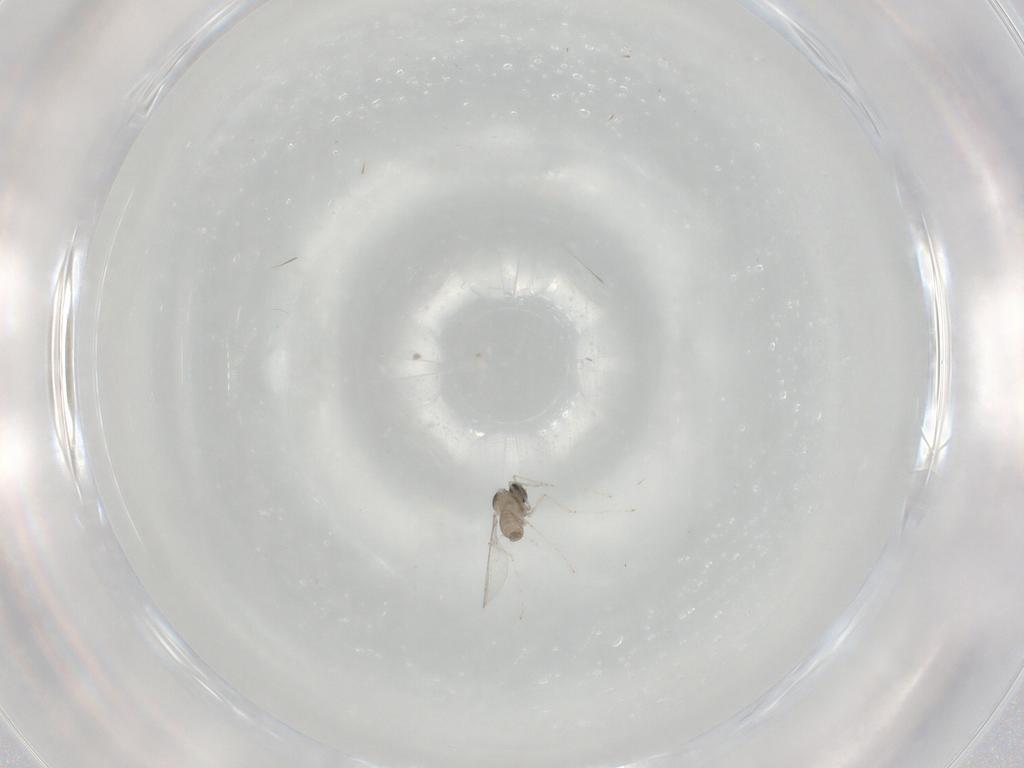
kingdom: Animalia
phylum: Arthropoda
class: Insecta
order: Diptera
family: Cecidomyiidae
